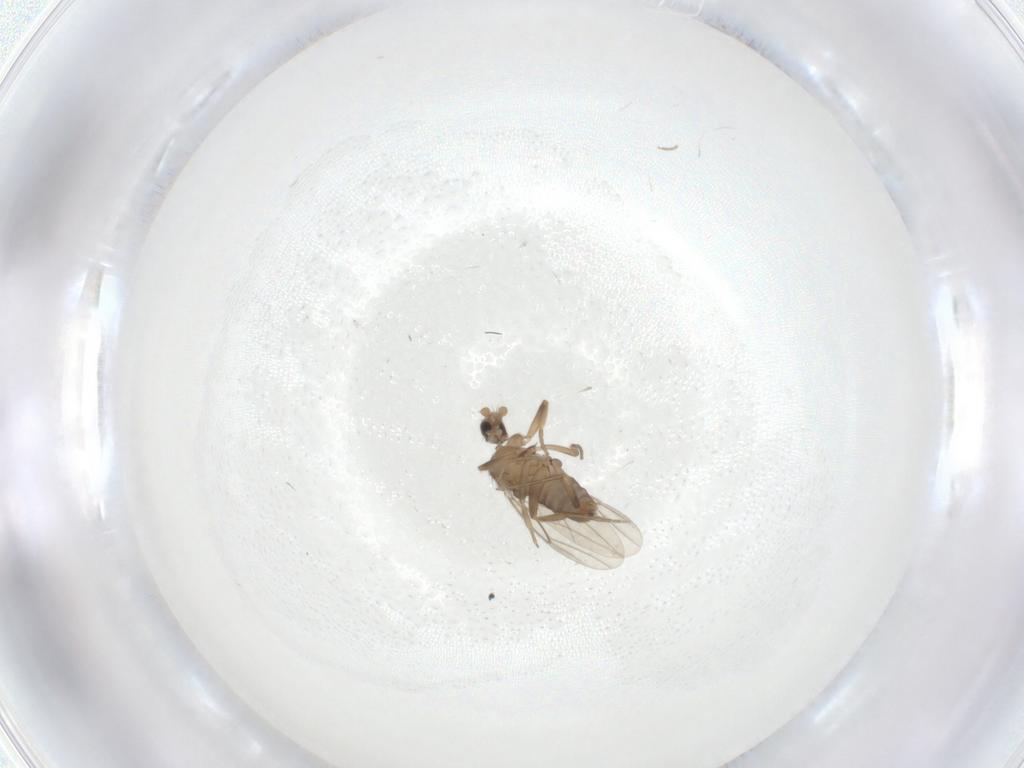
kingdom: Animalia
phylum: Arthropoda
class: Insecta
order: Diptera
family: Phoridae
